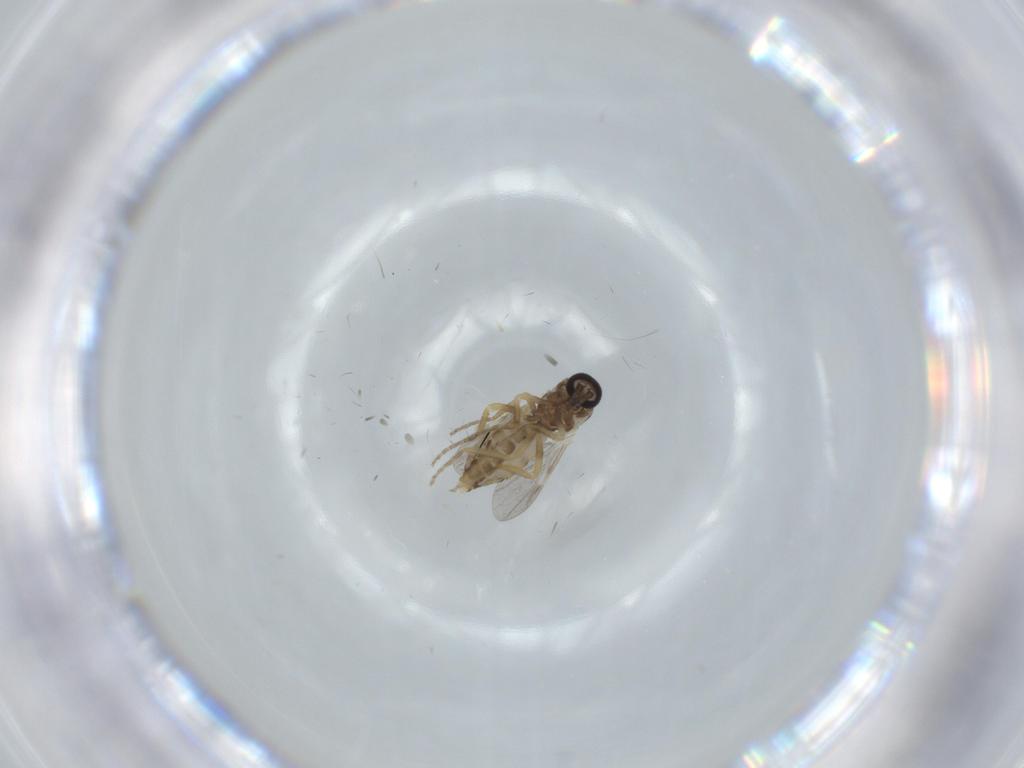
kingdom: Animalia
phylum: Arthropoda
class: Insecta
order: Diptera
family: Ceratopogonidae
